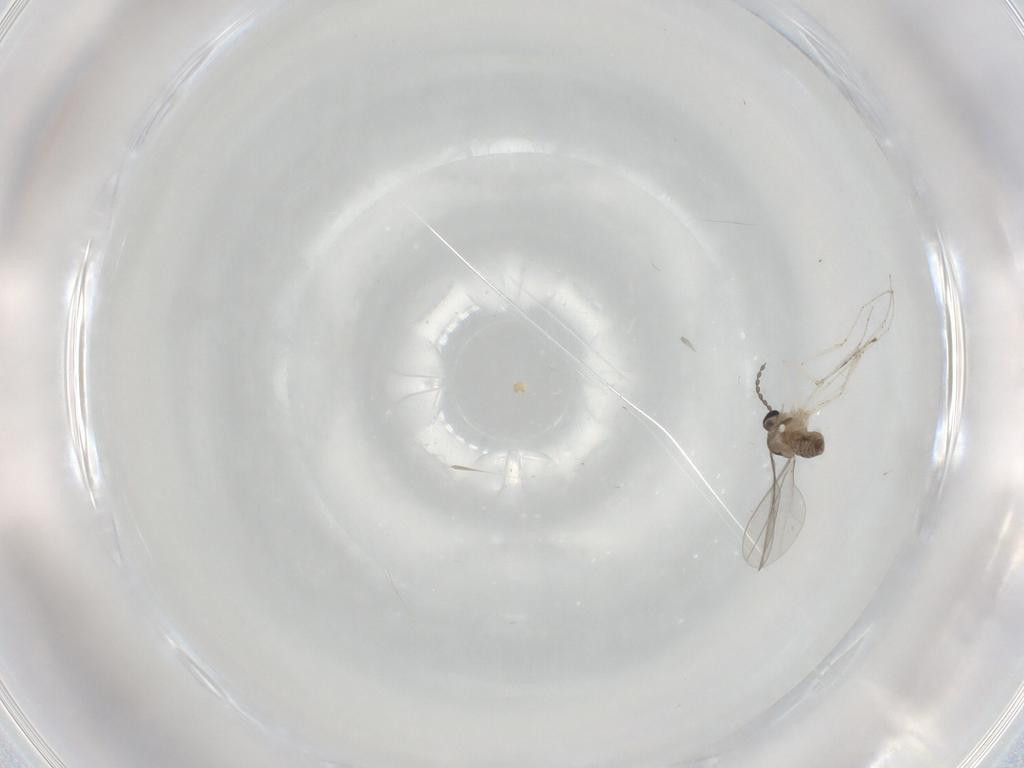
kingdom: Animalia
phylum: Arthropoda
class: Insecta
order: Diptera
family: Cecidomyiidae
